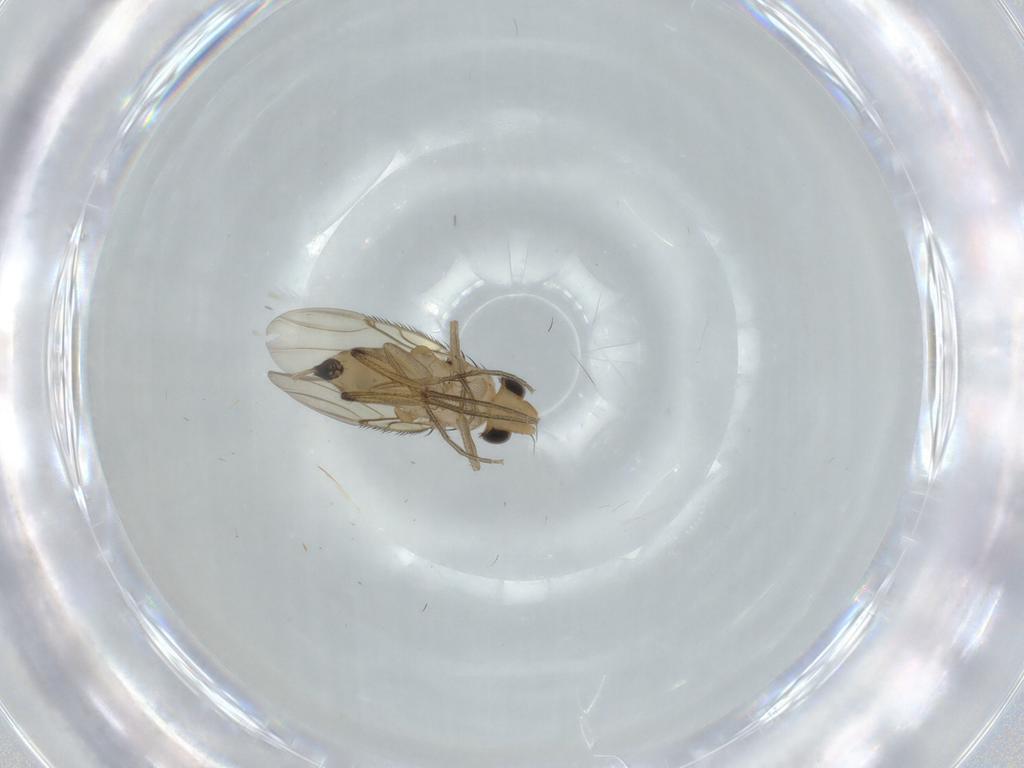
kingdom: Animalia
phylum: Arthropoda
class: Insecta
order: Diptera
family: Phoridae
